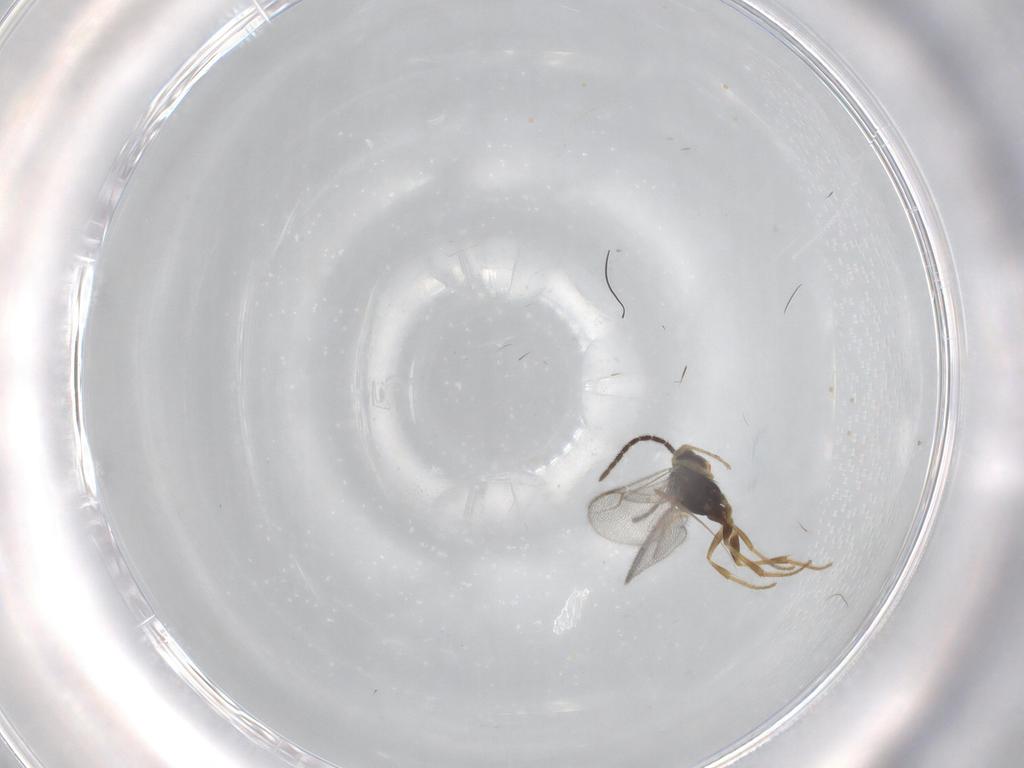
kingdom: Animalia
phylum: Arthropoda
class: Insecta
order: Hymenoptera
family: Dryinidae
